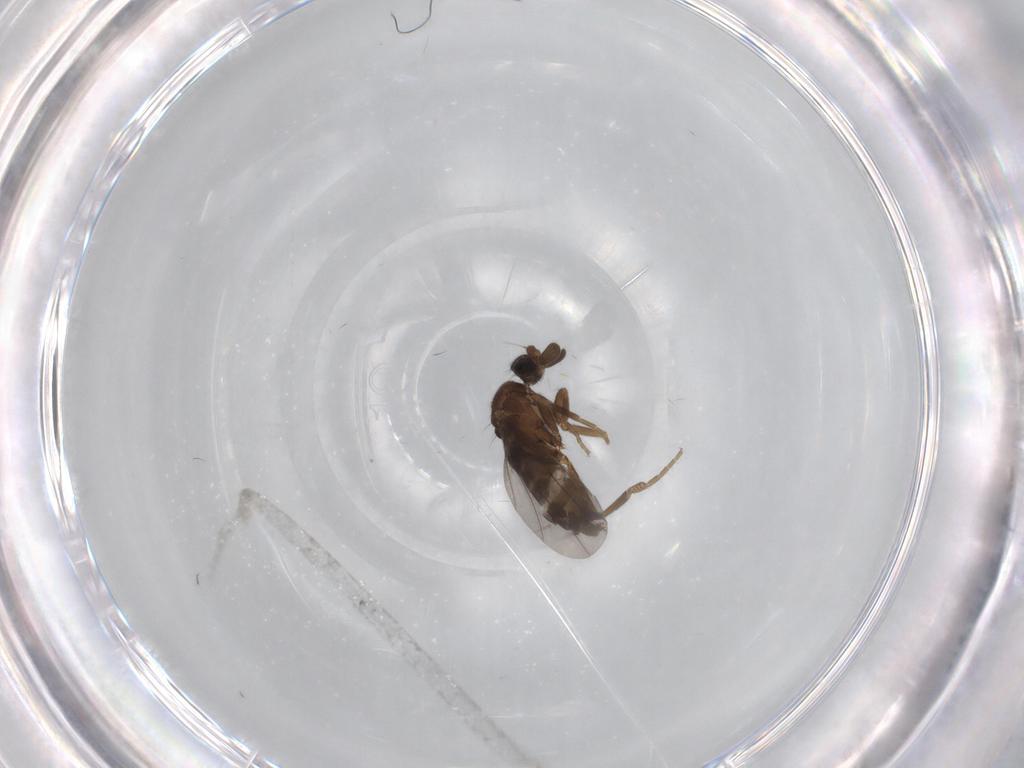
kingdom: Animalia
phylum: Arthropoda
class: Insecta
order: Diptera
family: Phoridae
